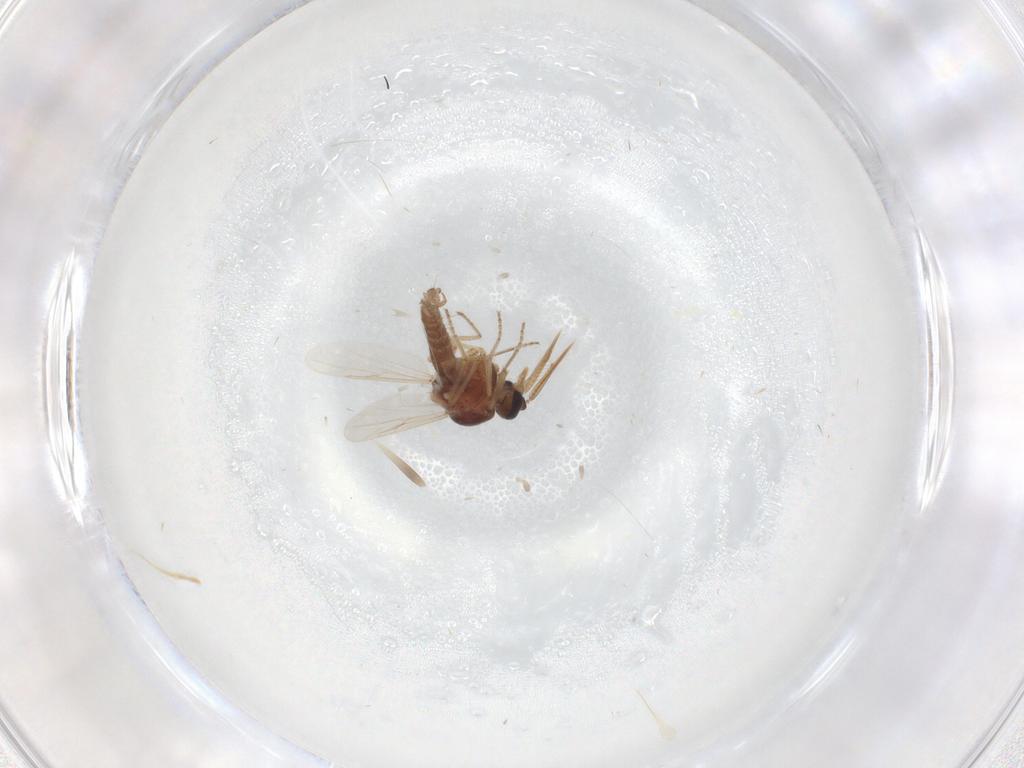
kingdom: Animalia
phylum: Arthropoda
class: Insecta
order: Diptera
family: Ceratopogonidae
